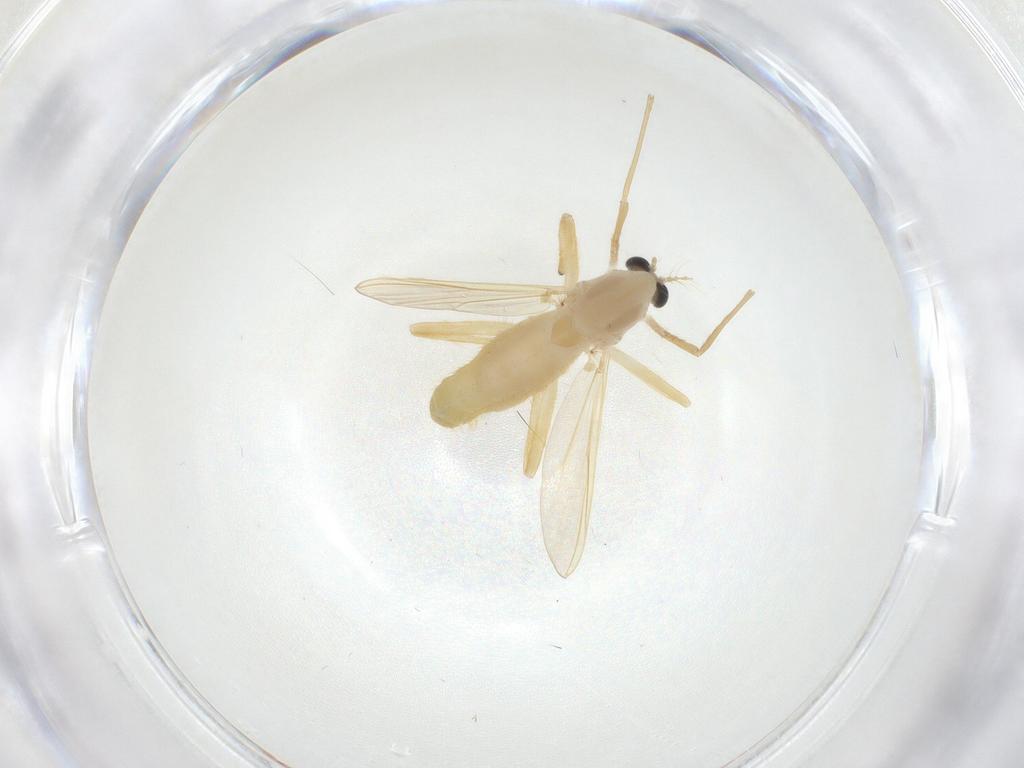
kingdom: Animalia
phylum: Arthropoda
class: Insecta
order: Diptera
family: Chironomidae
